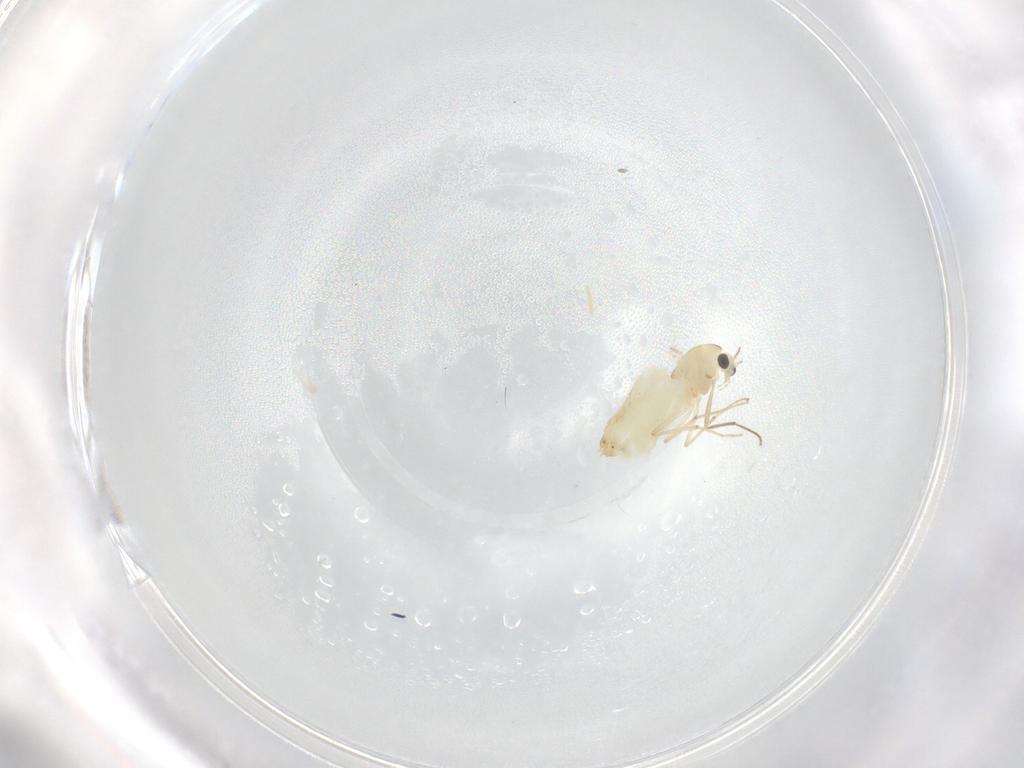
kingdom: Animalia
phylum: Arthropoda
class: Insecta
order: Diptera
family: Chironomidae
